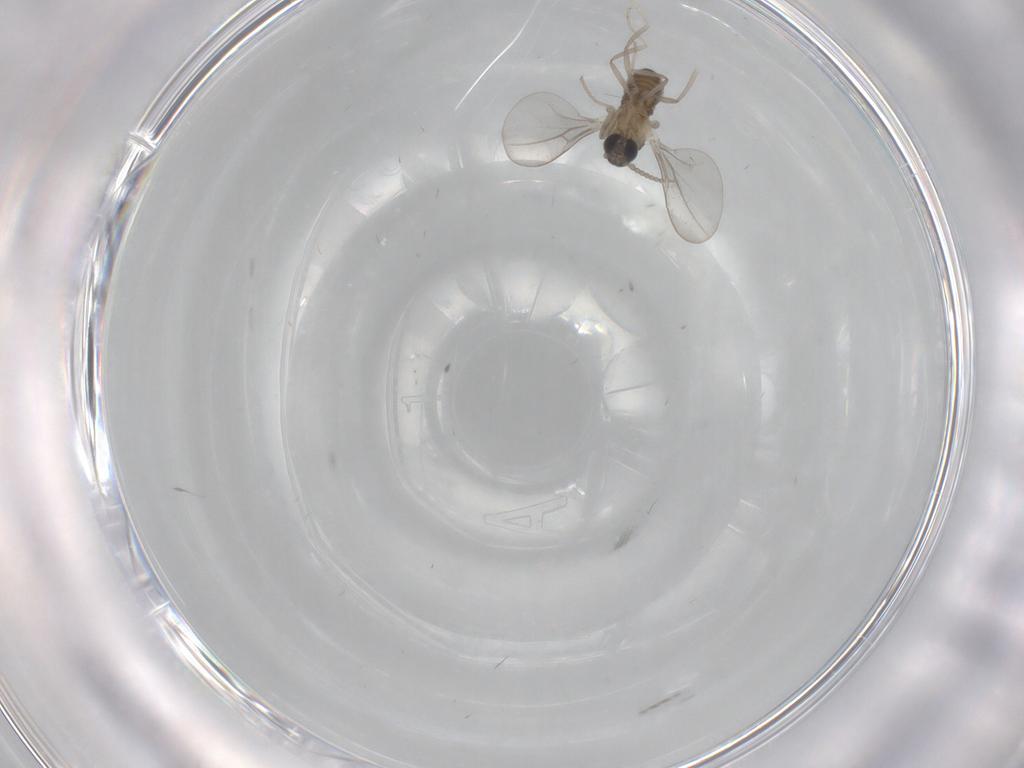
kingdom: Animalia
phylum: Arthropoda
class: Insecta
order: Diptera
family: Cecidomyiidae
